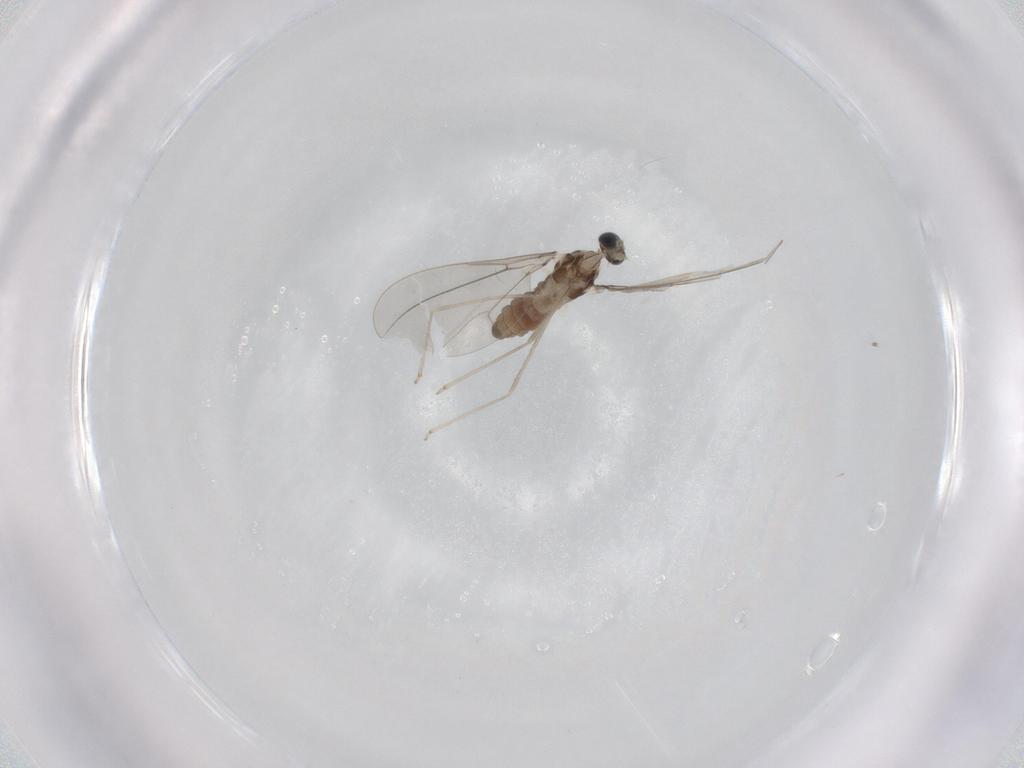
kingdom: Animalia
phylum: Arthropoda
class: Insecta
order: Diptera
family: Cecidomyiidae
